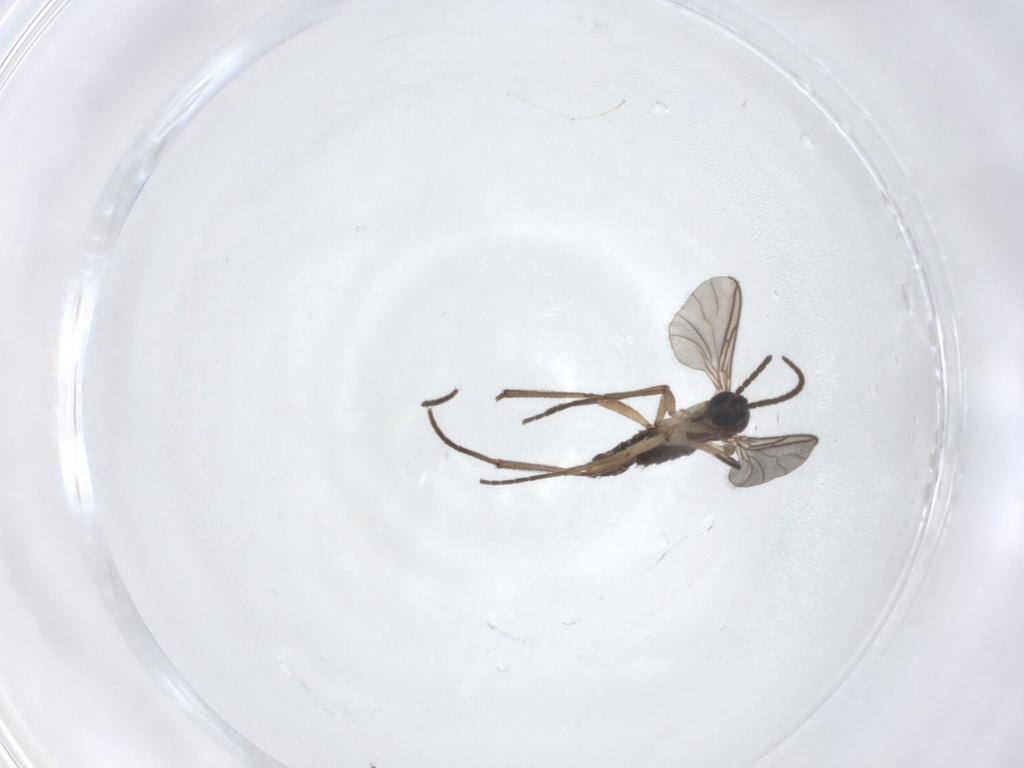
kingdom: Animalia
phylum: Arthropoda
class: Insecta
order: Diptera
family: Sciaridae
